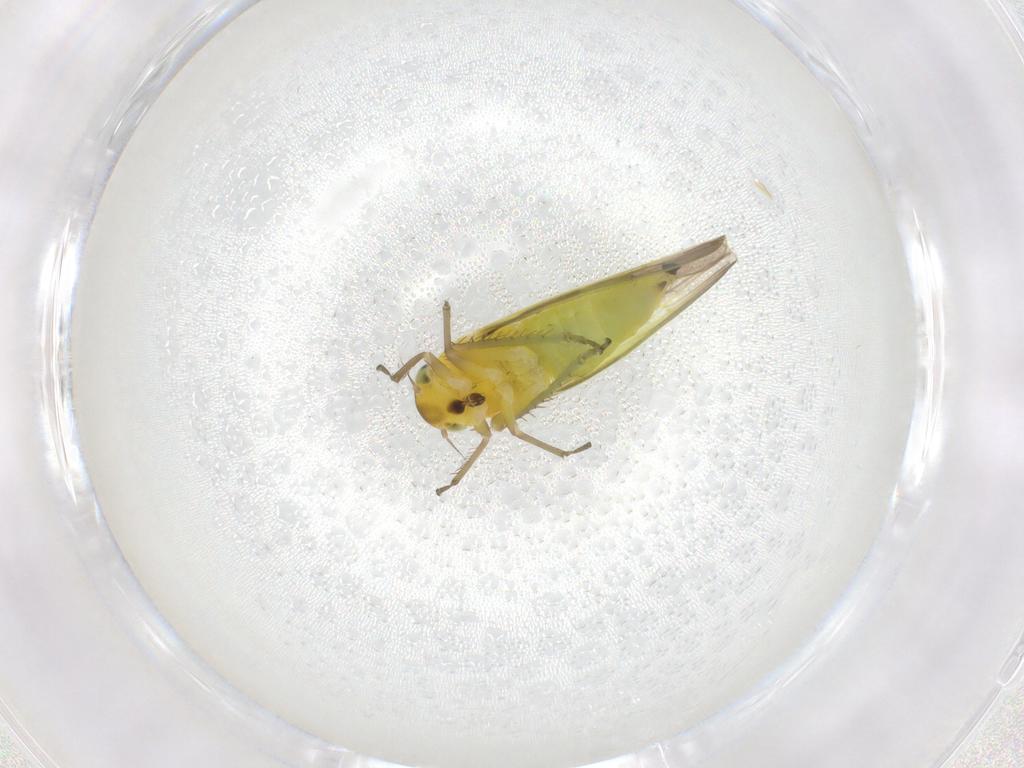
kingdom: Animalia
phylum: Arthropoda
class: Insecta
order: Hemiptera
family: Cicadellidae
